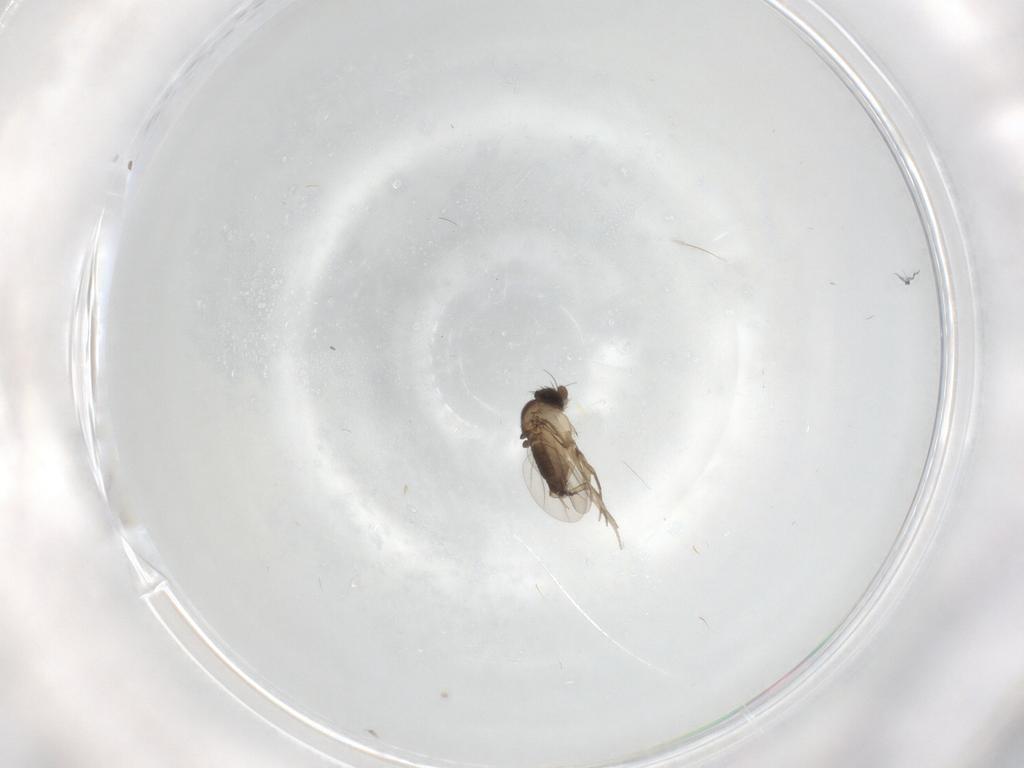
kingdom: Animalia
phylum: Arthropoda
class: Insecta
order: Diptera
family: Phoridae
